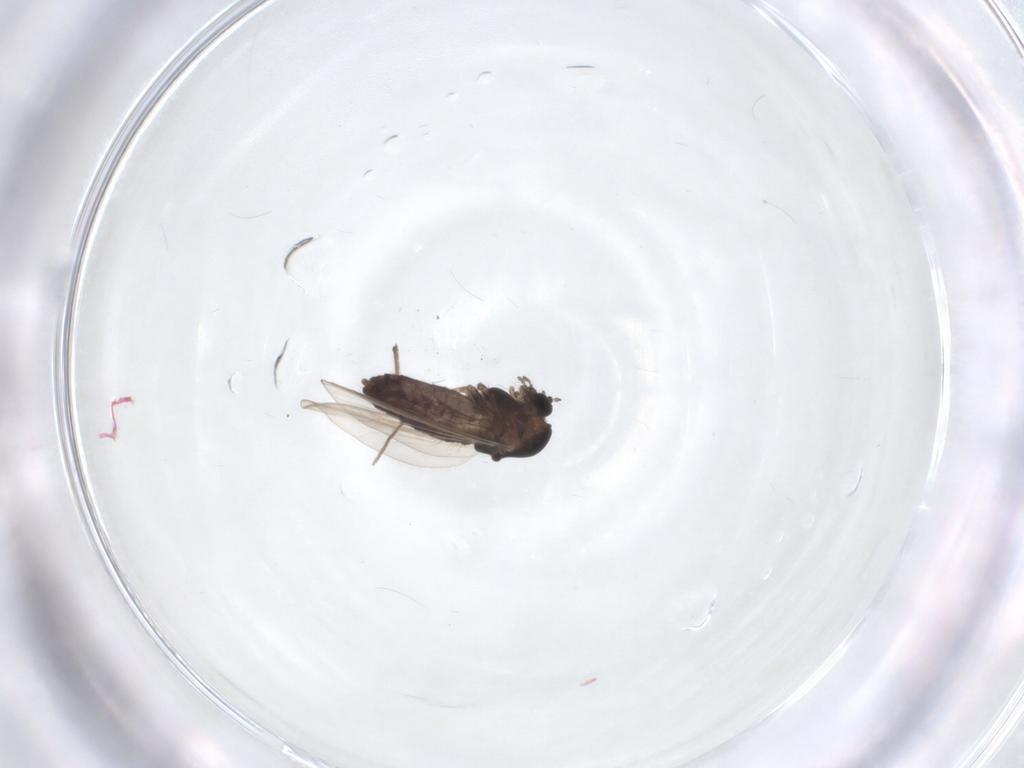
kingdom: Animalia
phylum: Arthropoda
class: Insecta
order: Diptera
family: Chironomidae
